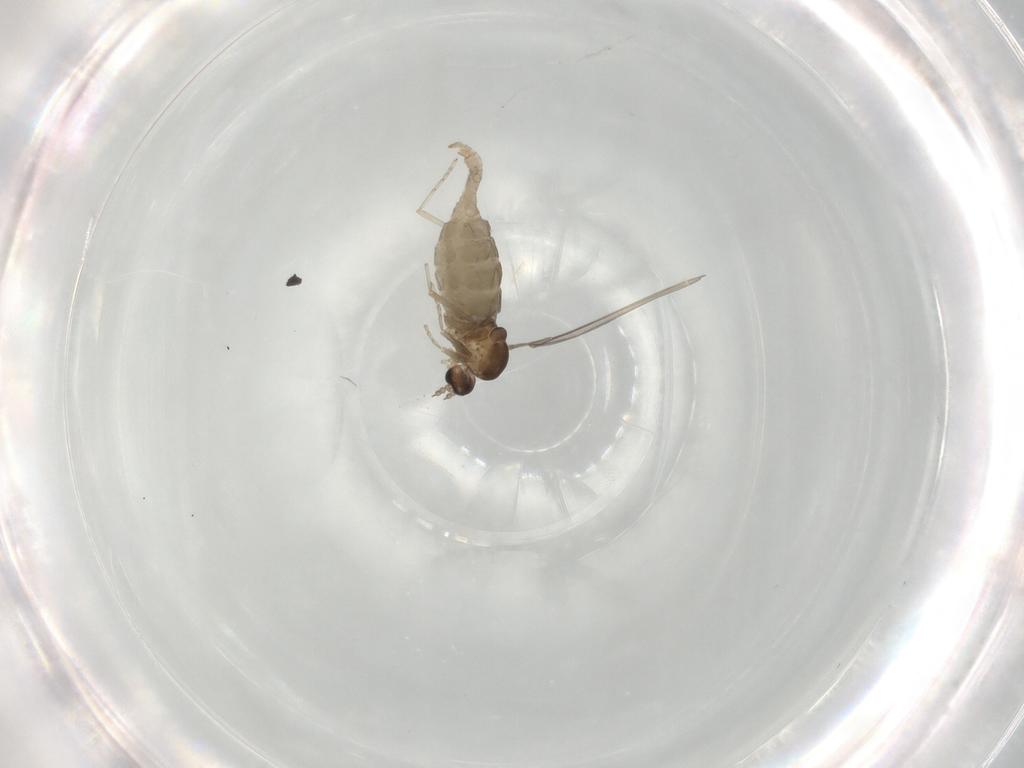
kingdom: Animalia
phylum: Arthropoda
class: Insecta
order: Diptera
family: Cecidomyiidae
